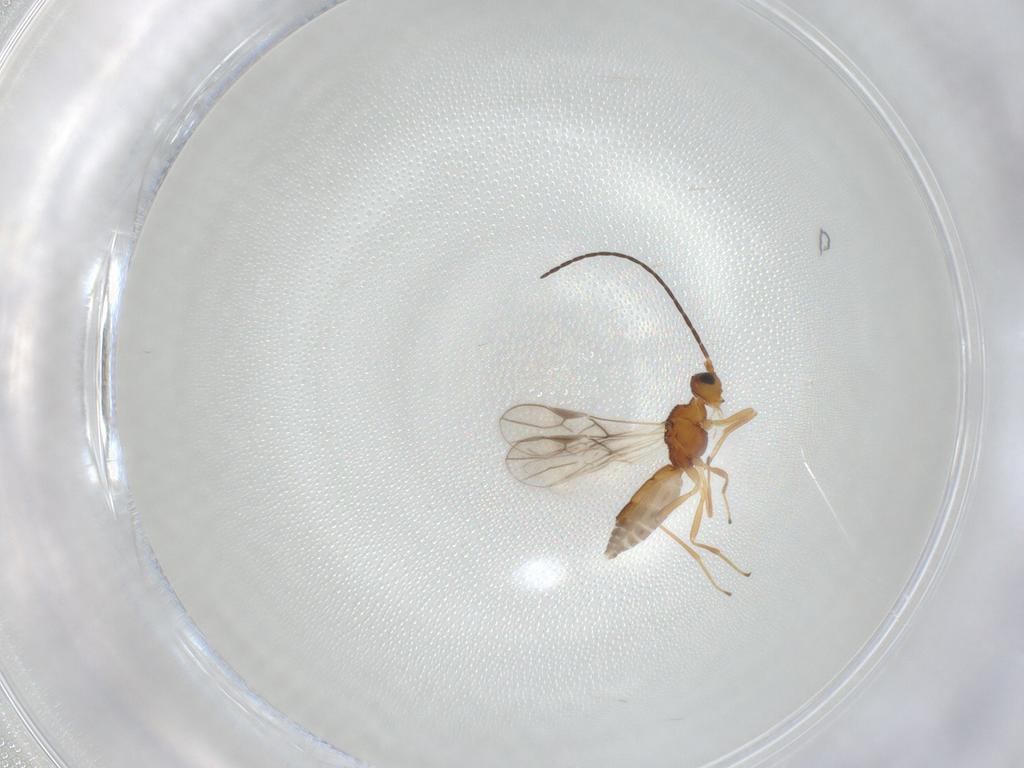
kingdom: Animalia
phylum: Arthropoda
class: Insecta
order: Hymenoptera
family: Braconidae
